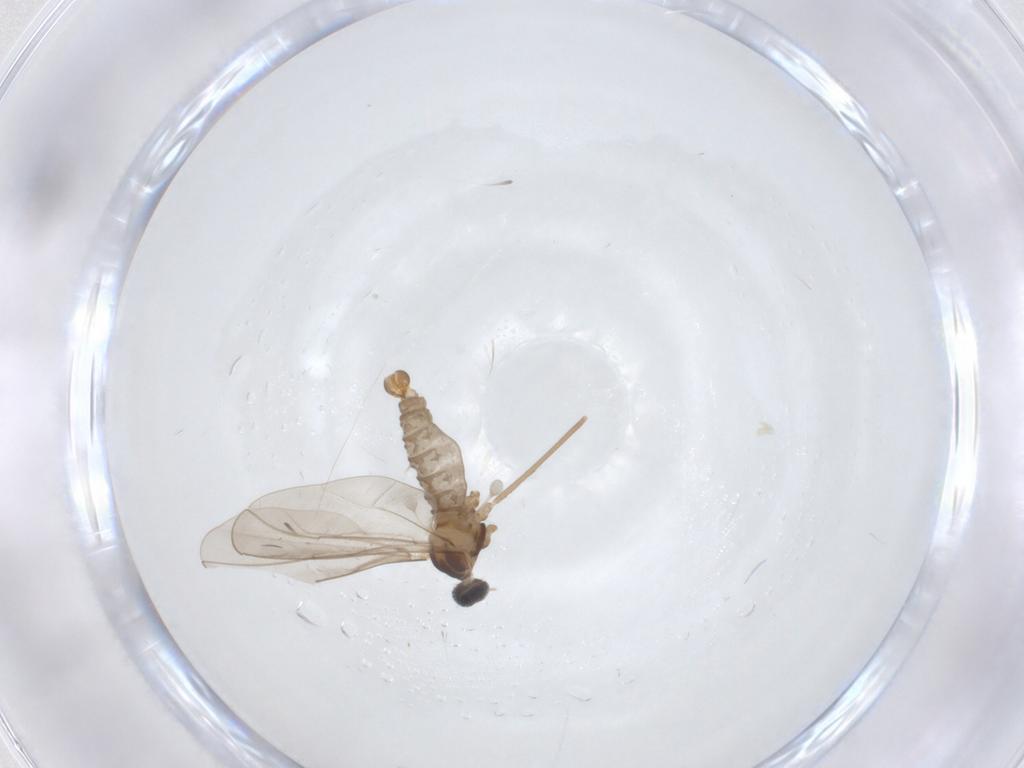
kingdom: Animalia
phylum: Arthropoda
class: Insecta
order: Diptera
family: Cecidomyiidae
